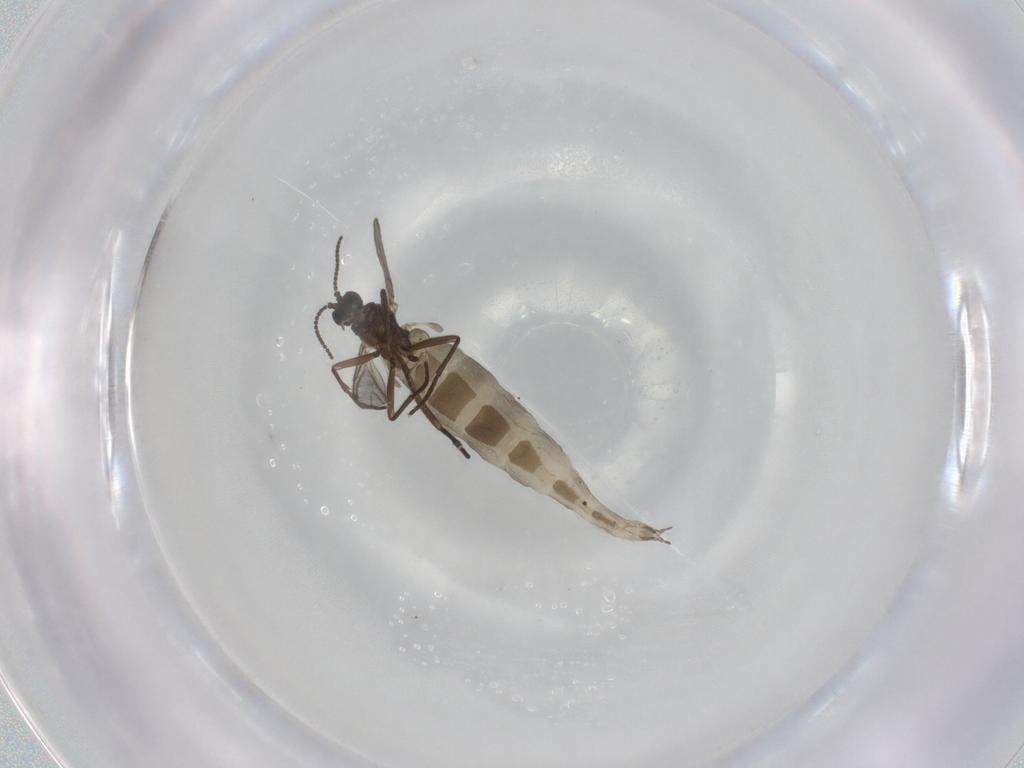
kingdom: Animalia
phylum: Arthropoda
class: Insecta
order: Diptera
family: Sciaridae
